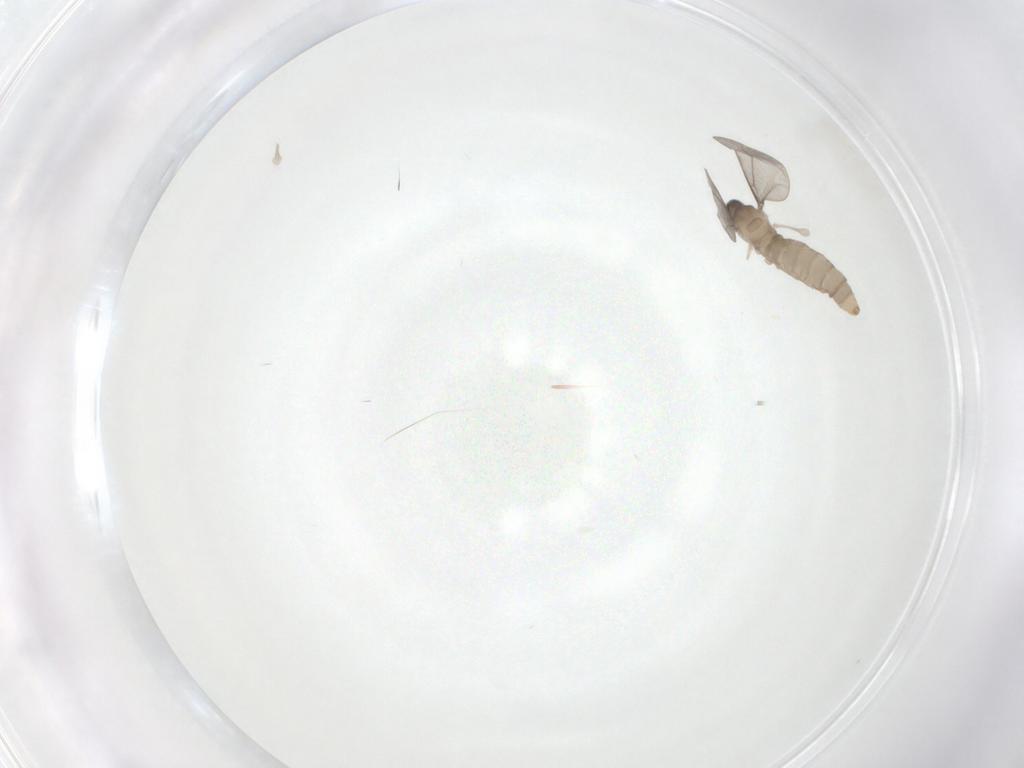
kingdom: Animalia
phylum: Arthropoda
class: Insecta
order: Diptera
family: Cecidomyiidae
